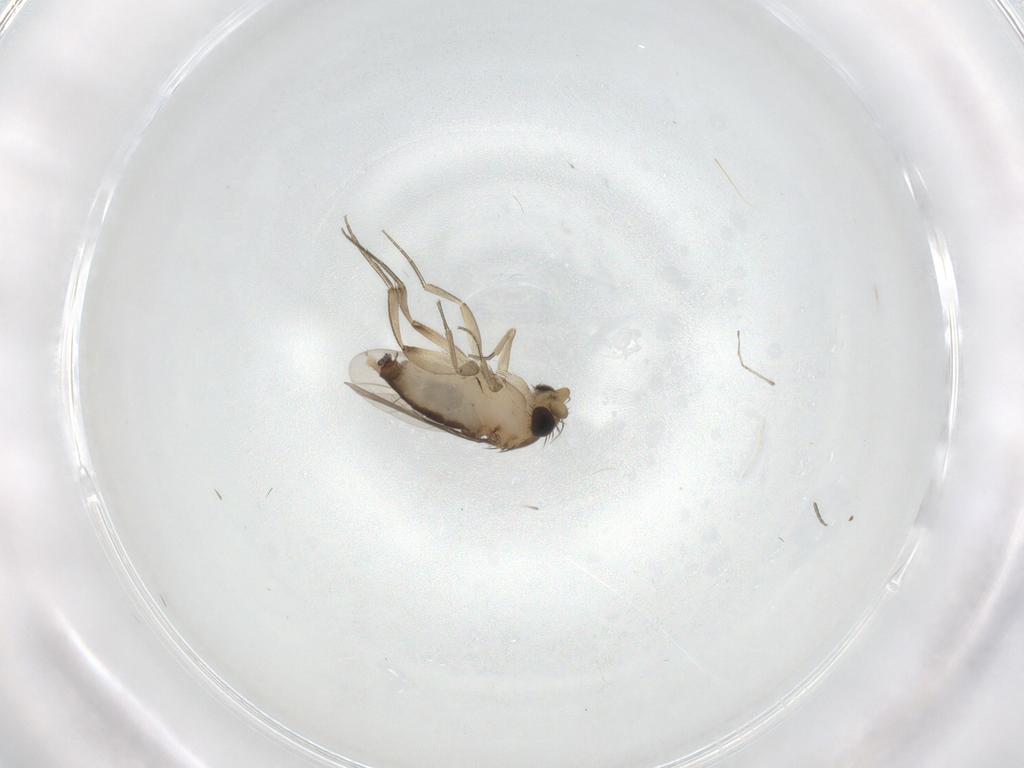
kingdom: Animalia
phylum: Arthropoda
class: Insecta
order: Diptera
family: Phoridae
